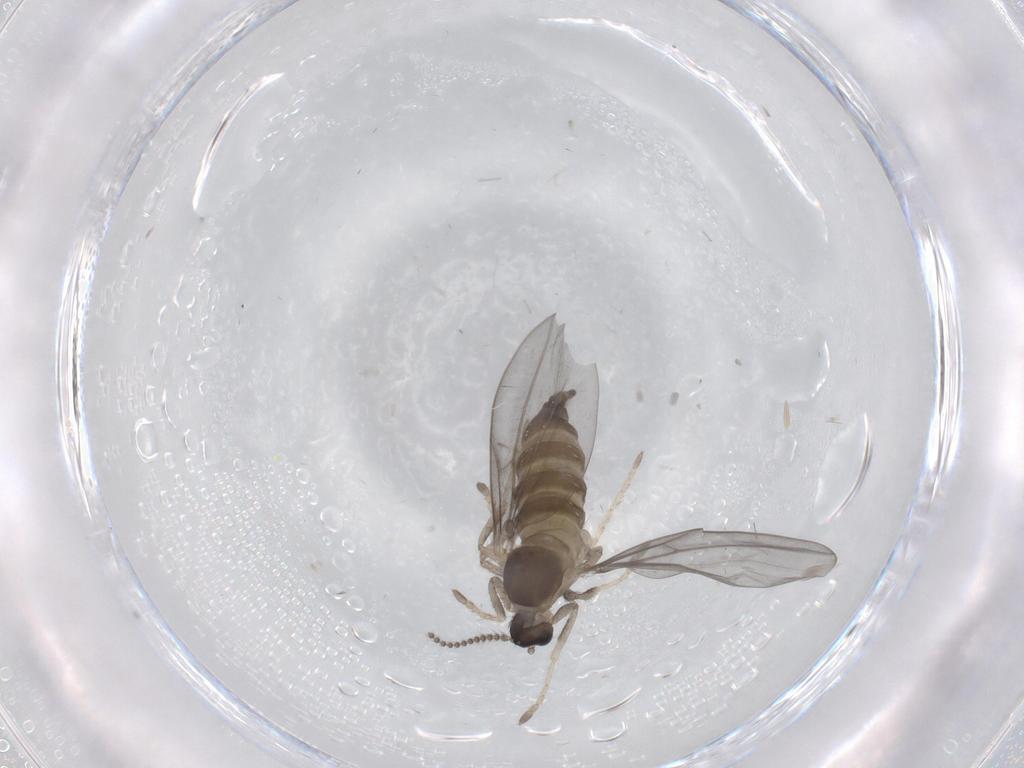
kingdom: Animalia
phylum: Arthropoda
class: Insecta
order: Diptera
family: Cecidomyiidae
